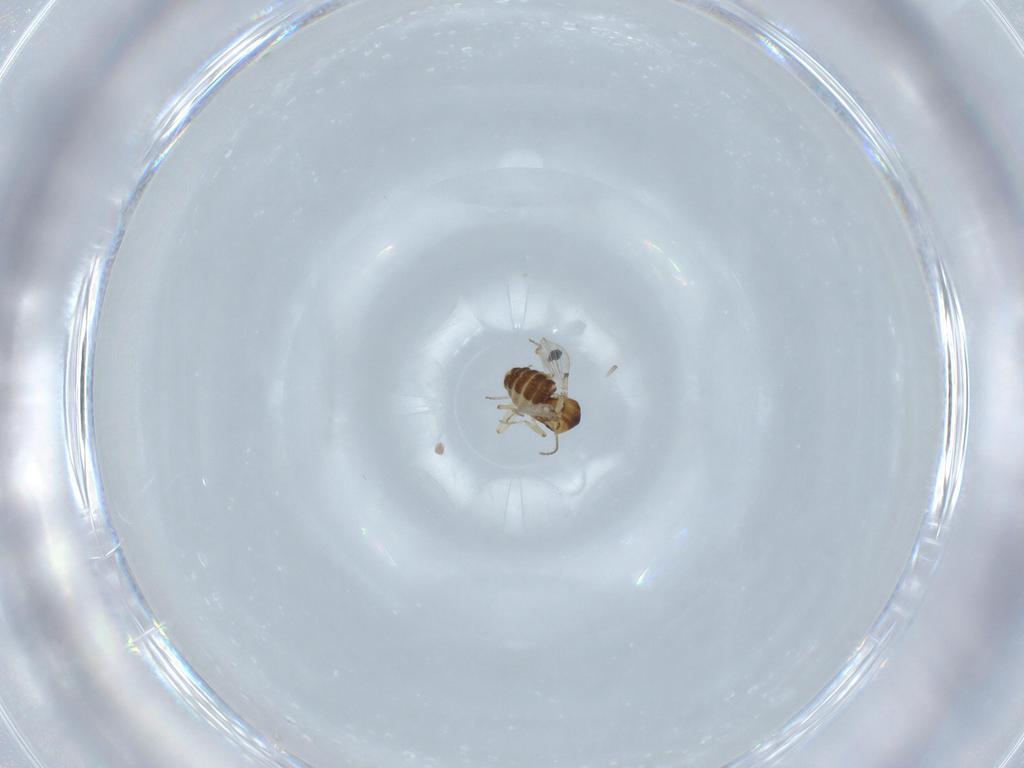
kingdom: Animalia
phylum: Arthropoda
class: Insecta
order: Diptera
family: Ceratopogonidae
